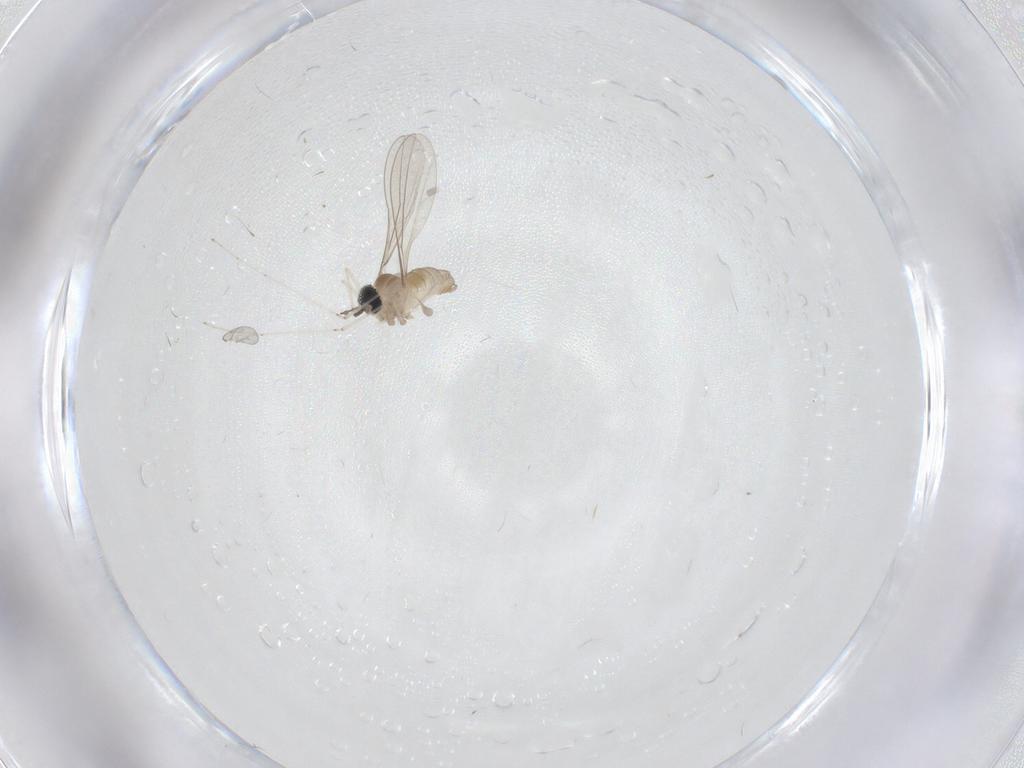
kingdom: Animalia
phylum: Arthropoda
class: Insecta
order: Diptera
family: Cecidomyiidae
